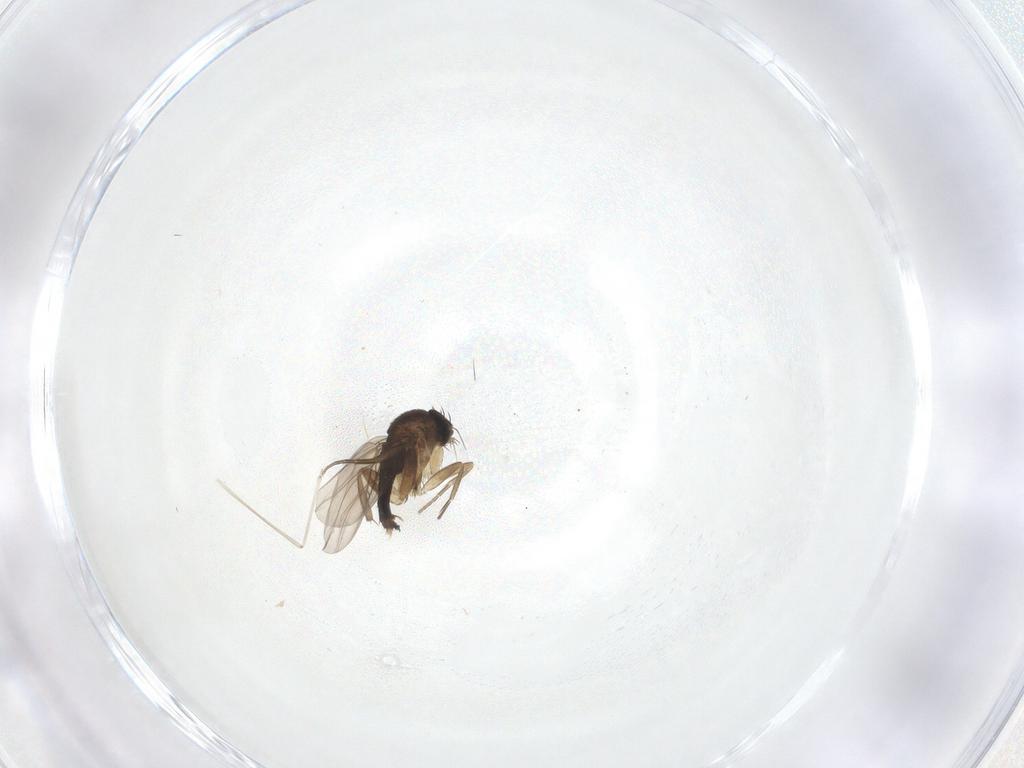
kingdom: Animalia
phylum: Arthropoda
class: Insecta
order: Diptera
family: Phoridae
